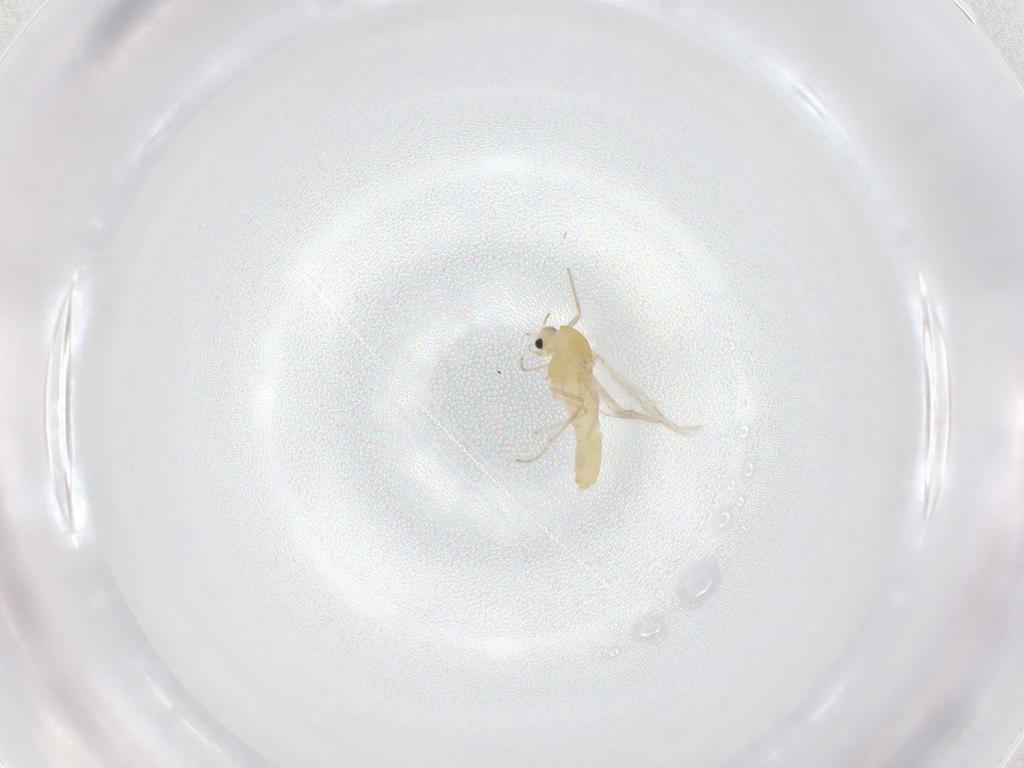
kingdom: Animalia
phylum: Arthropoda
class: Insecta
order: Diptera
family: Chironomidae
